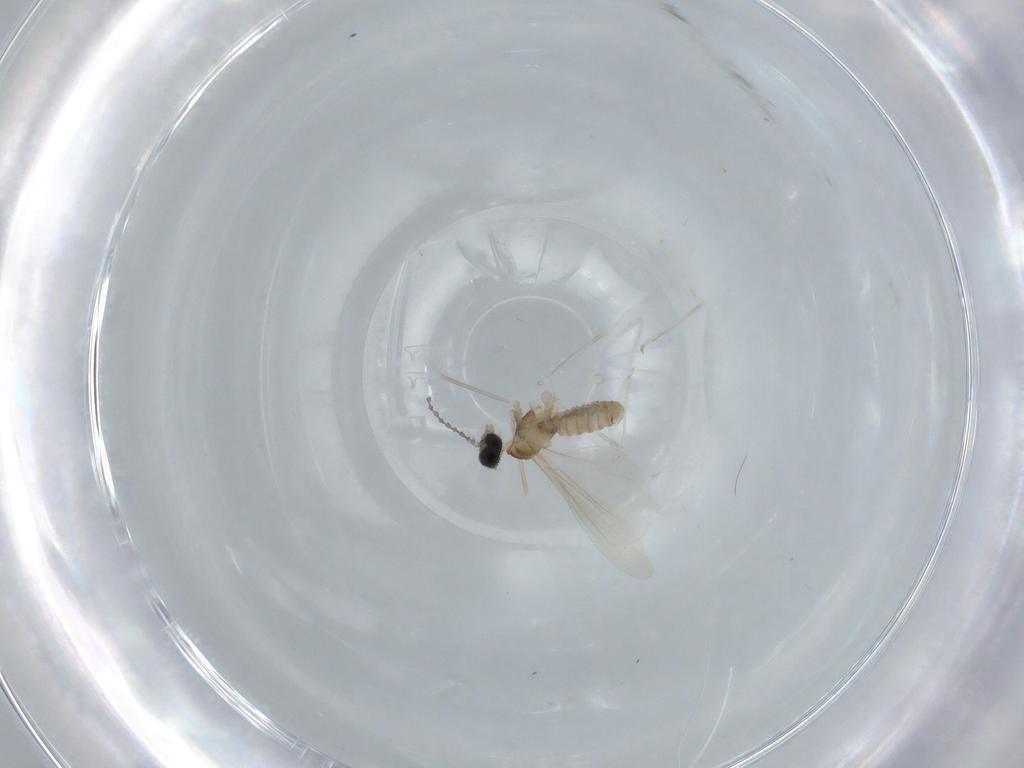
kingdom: Animalia
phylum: Arthropoda
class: Insecta
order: Diptera
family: Cecidomyiidae
